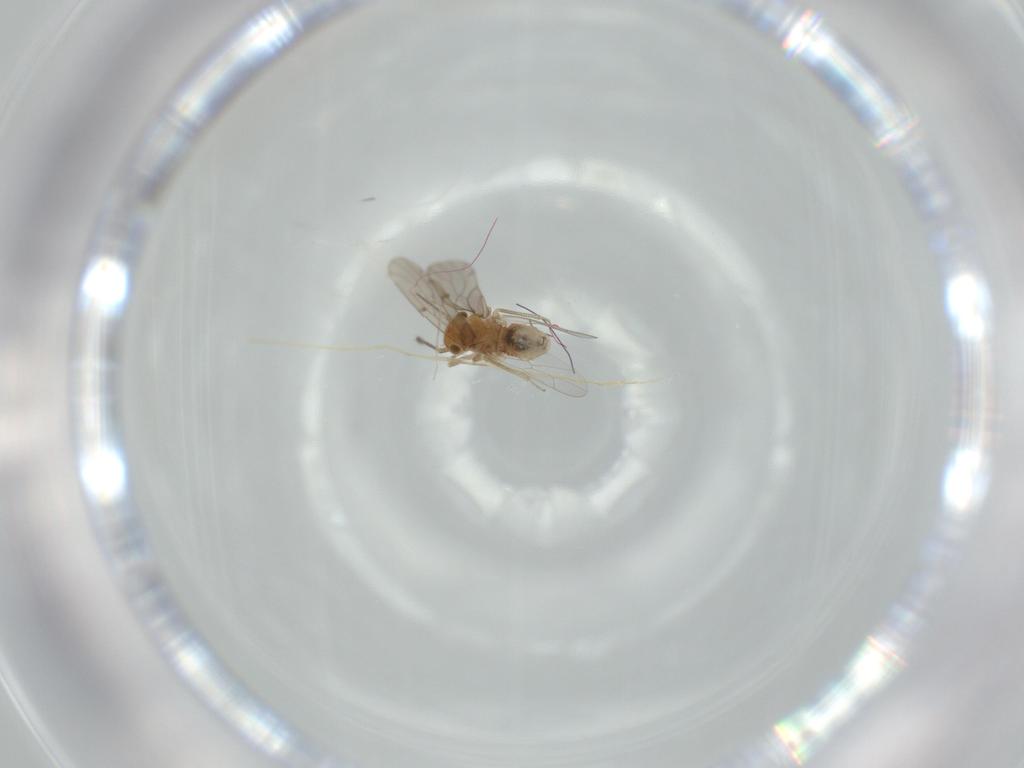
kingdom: Animalia
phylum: Arthropoda
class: Insecta
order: Psocodea
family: Ectopsocidae
